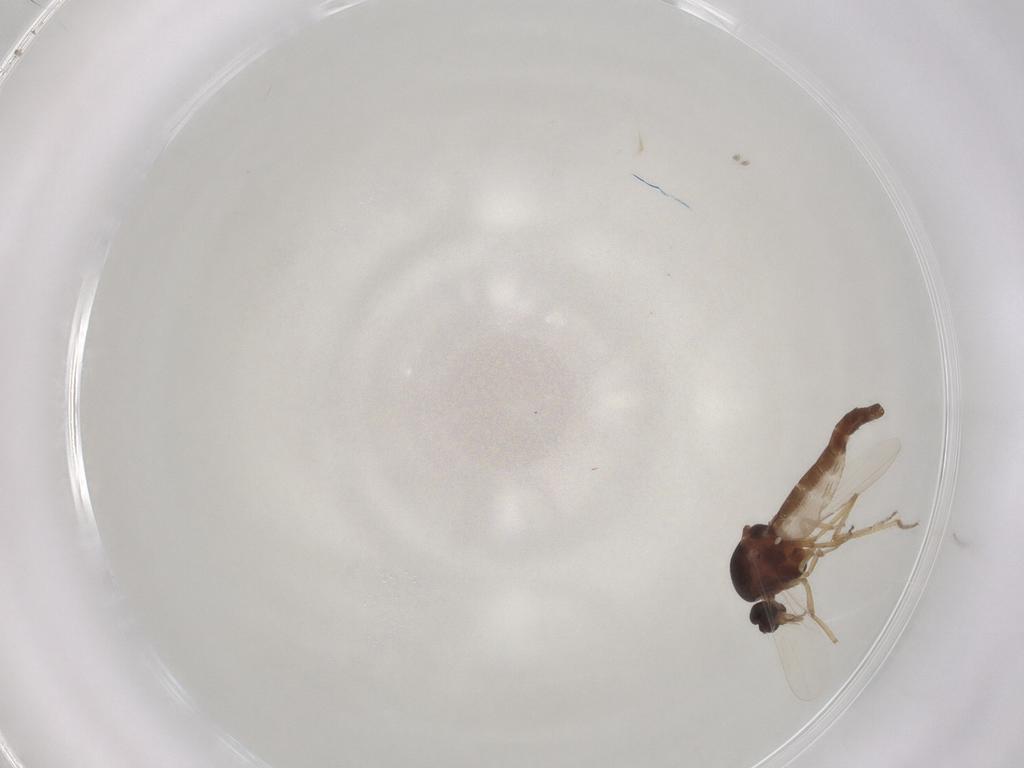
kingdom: Animalia
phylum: Arthropoda
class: Insecta
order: Diptera
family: Ceratopogonidae
